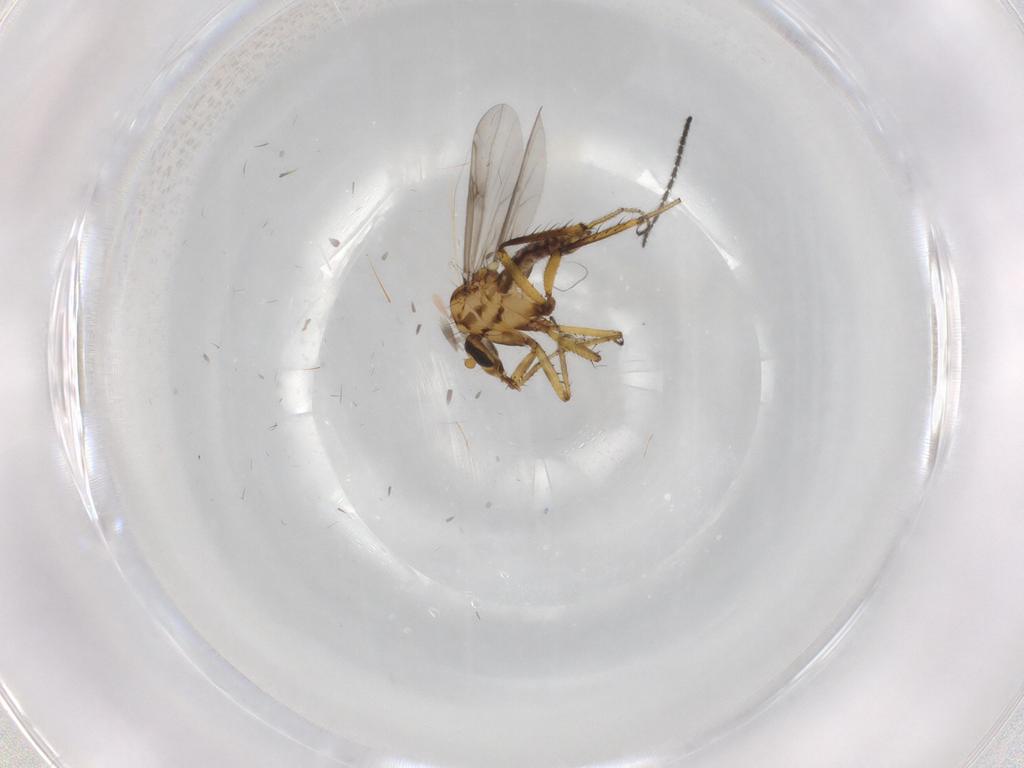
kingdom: Animalia
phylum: Arthropoda
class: Insecta
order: Diptera
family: Ceratopogonidae
